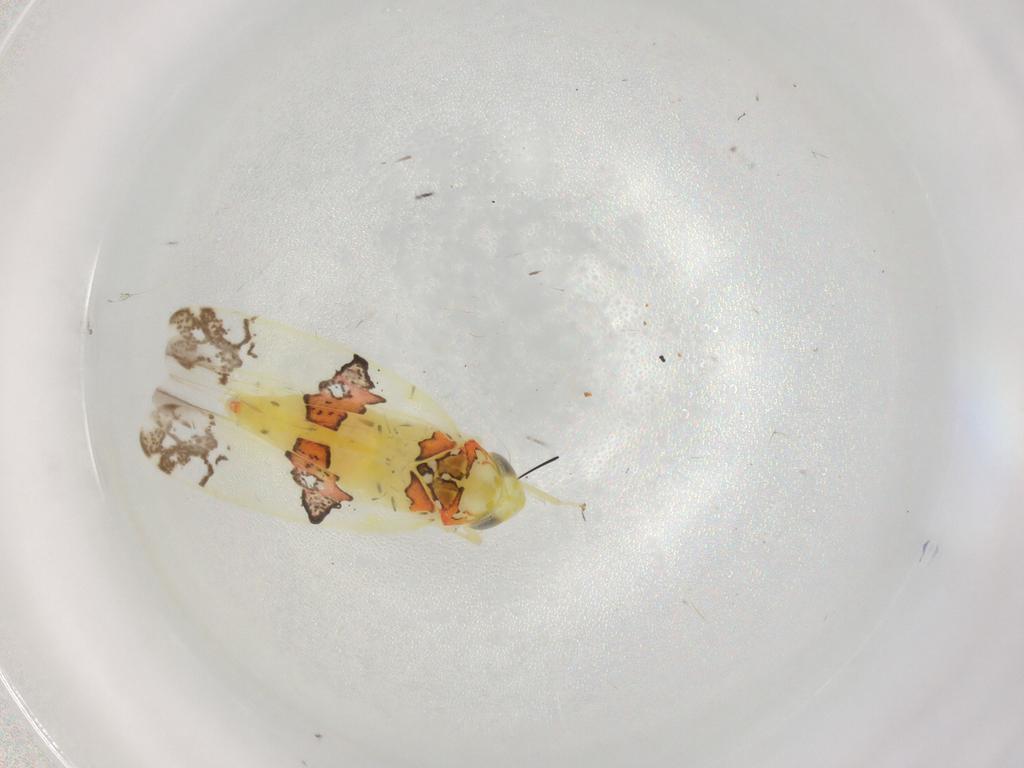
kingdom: Animalia
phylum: Arthropoda
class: Insecta
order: Hemiptera
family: Cicadellidae
